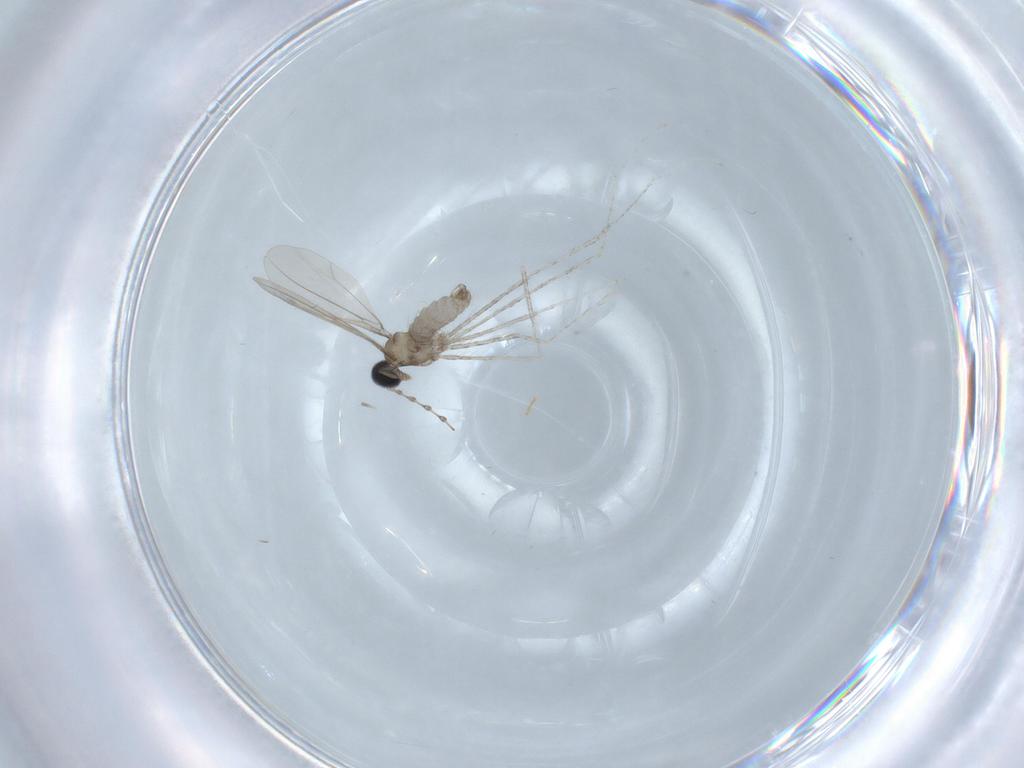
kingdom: Animalia
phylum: Arthropoda
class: Insecta
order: Diptera
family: Cecidomyiidae
